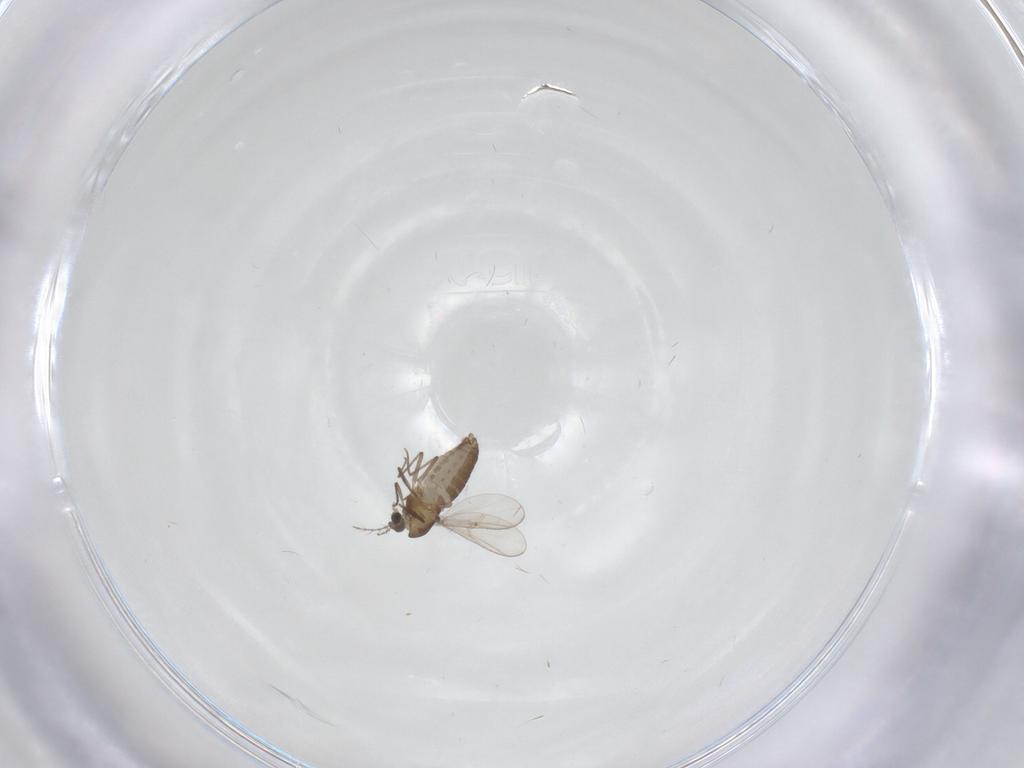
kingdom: Animalia
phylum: Arthropoda
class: Insecta
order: Diptera
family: Chironomidae
